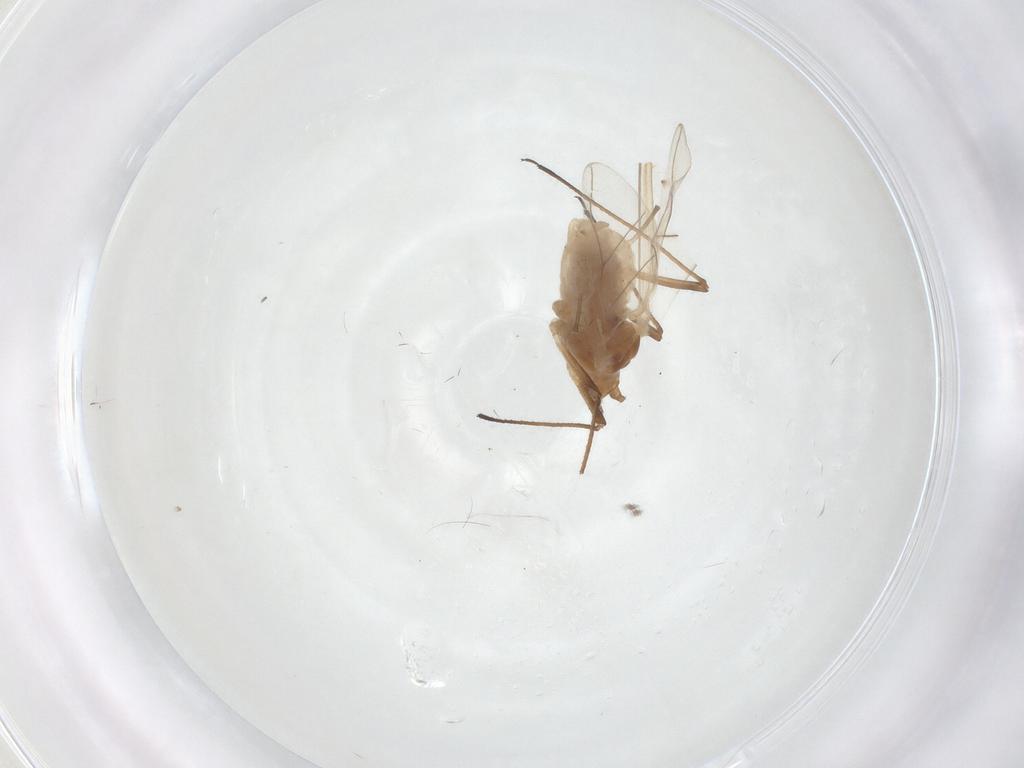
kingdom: Animalia
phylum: Arthropoda
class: Insecta
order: Hemiptera
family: Aphididae
